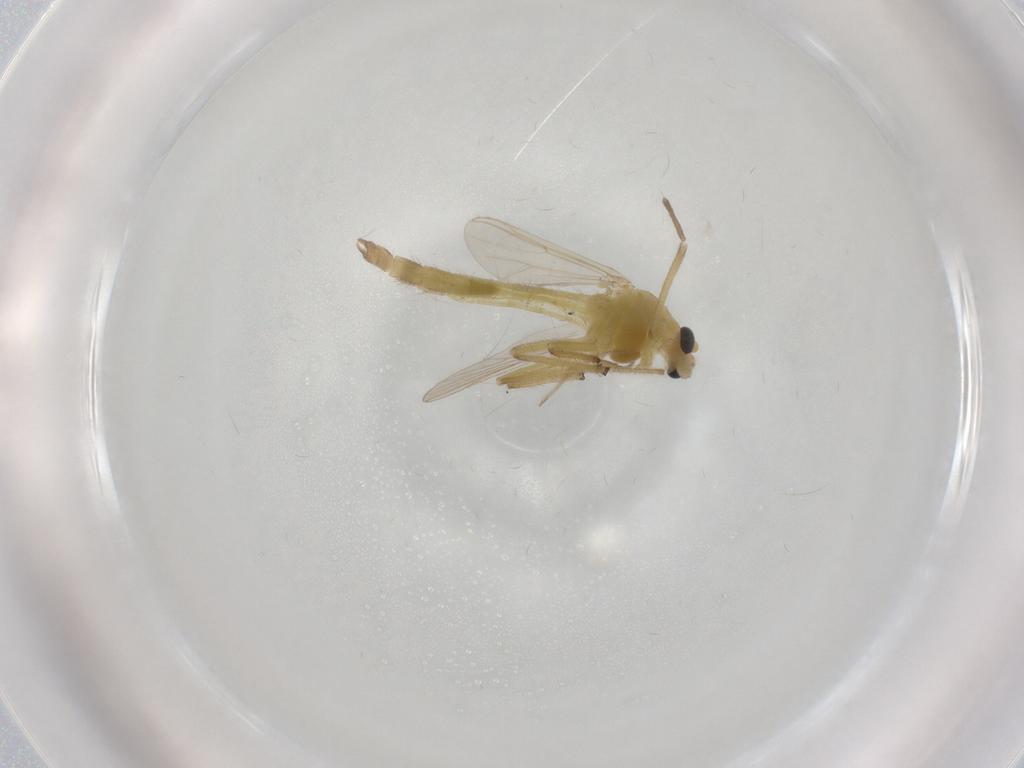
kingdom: Animalia
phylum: Arthropoda
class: Insecta
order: Diptera
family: Chironomidae
